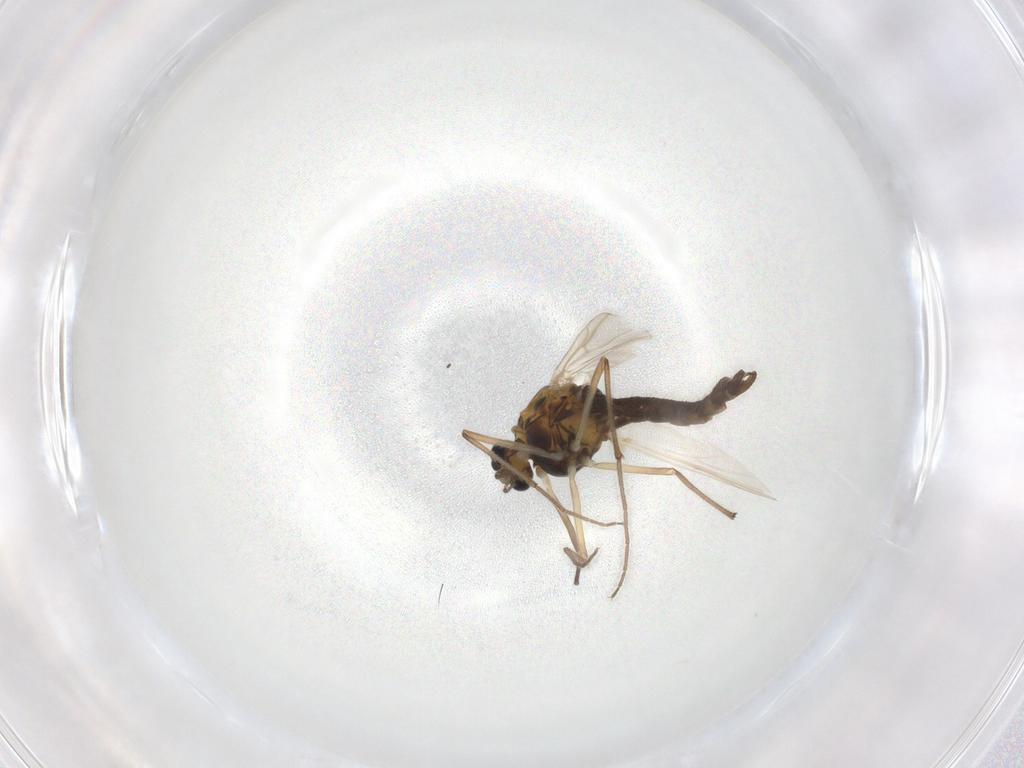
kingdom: Animalia
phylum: Arthropoda
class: Insecta
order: Diptera
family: Chironomidae
